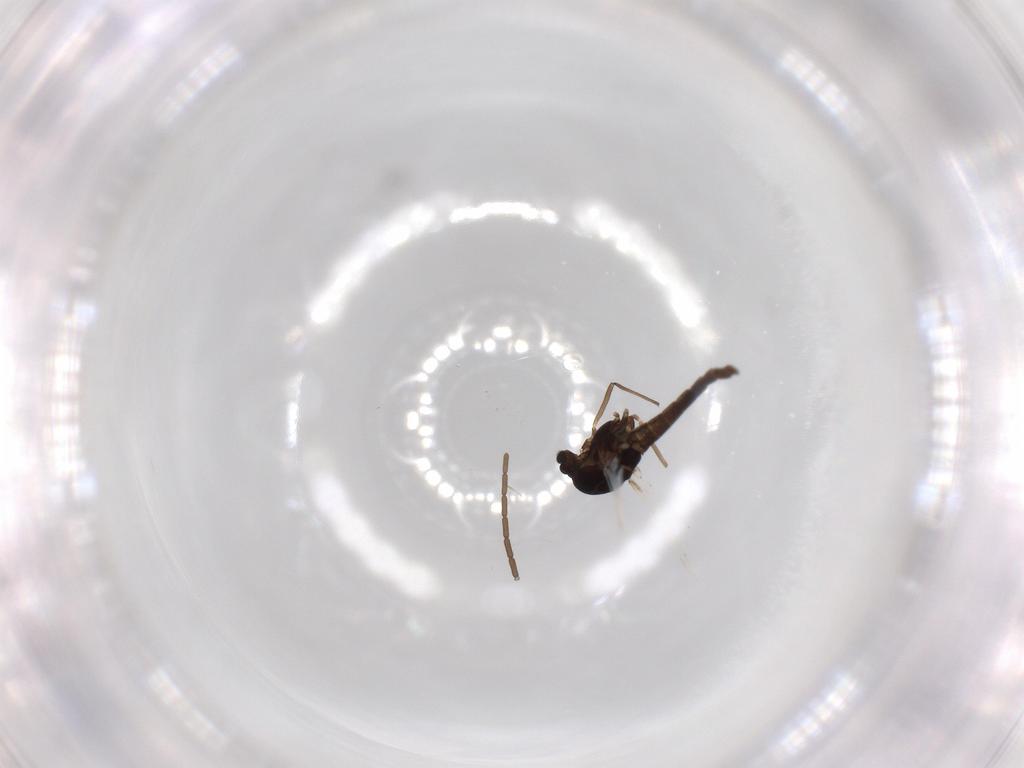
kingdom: Animalia
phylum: Arthropoda
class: Insecta
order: Diptera
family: Chironomidae
